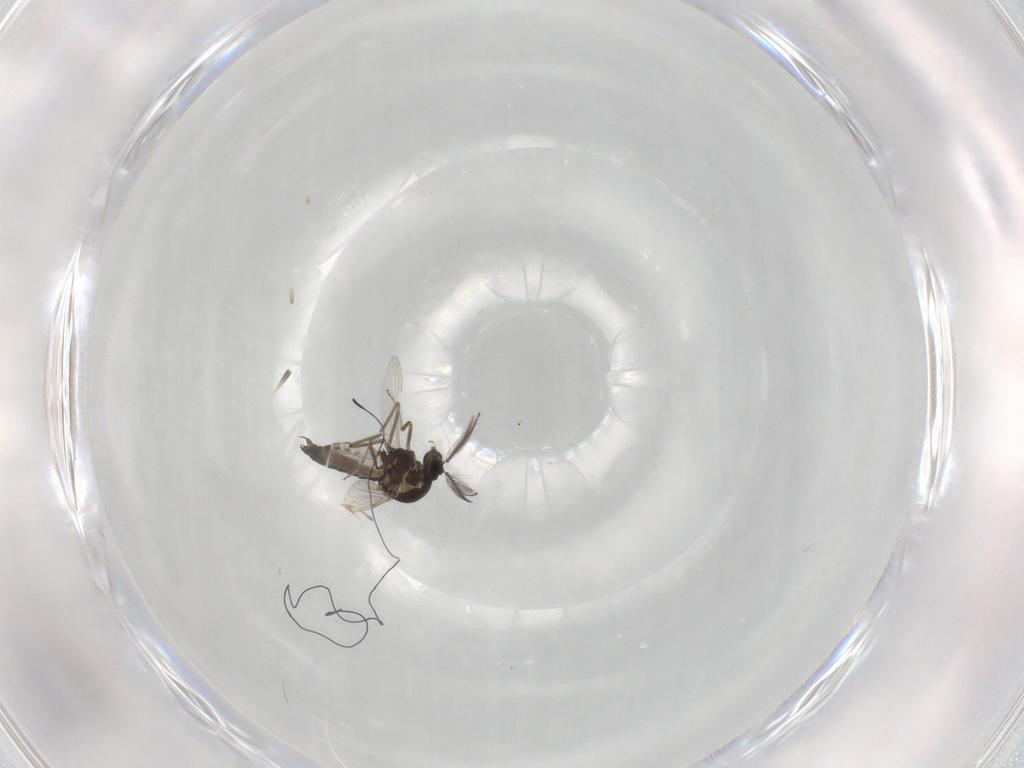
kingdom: Animalia
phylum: Arthropoda
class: Insecta
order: Diptera
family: Ceratopogonidae
